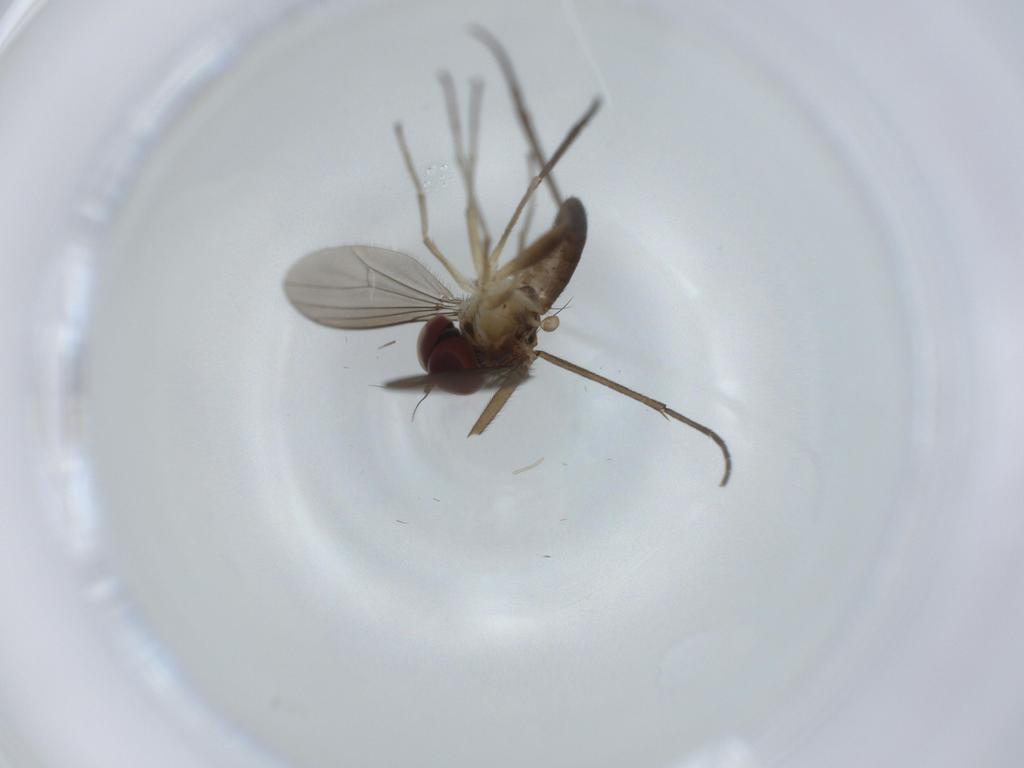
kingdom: Animalia
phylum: Arthropoda
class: Insecta
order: Diptera
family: Dolichopodidae
